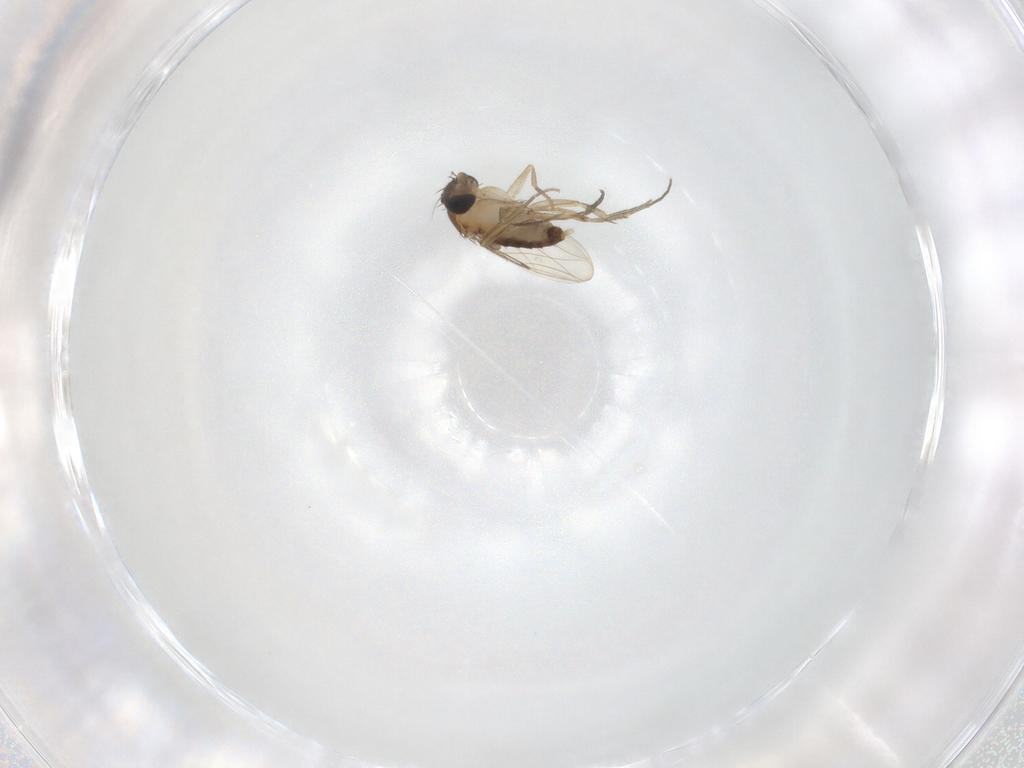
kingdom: Animalia
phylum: Arthropoda
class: Insecta
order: Diptera
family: Phoridae
